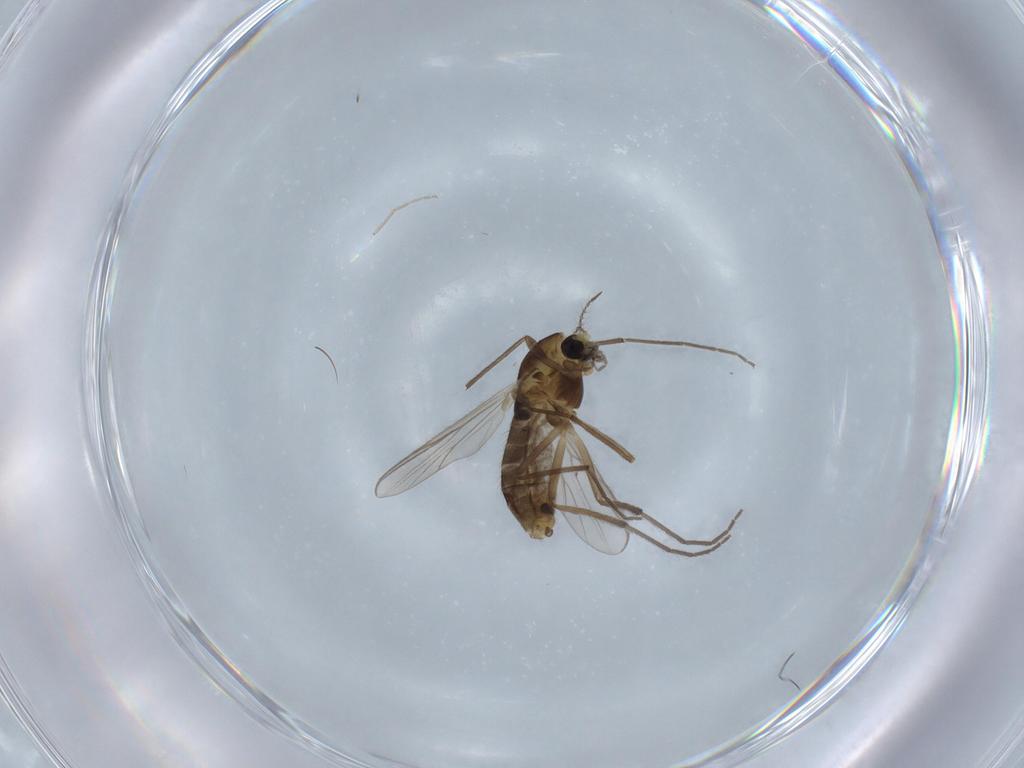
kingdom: Animalia
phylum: Arthropoda
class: Insecta
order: Diptera
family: Chironomidae
